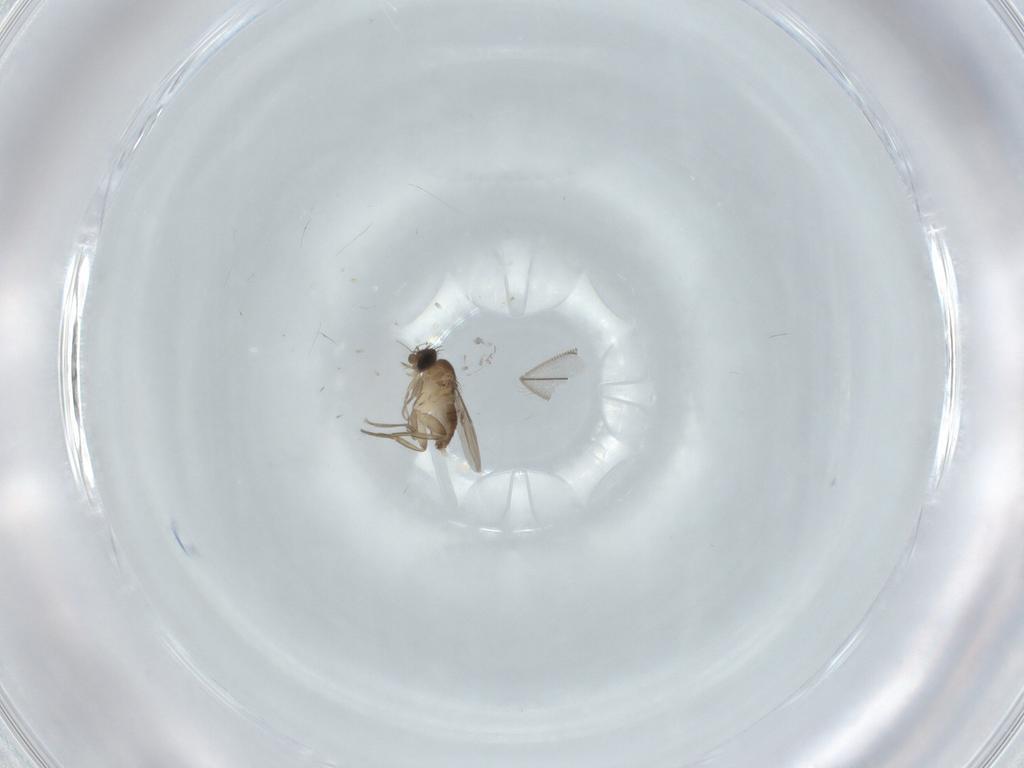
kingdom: Animalia
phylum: Arthropoda
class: Insecta
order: Diptera
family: Phoridae
